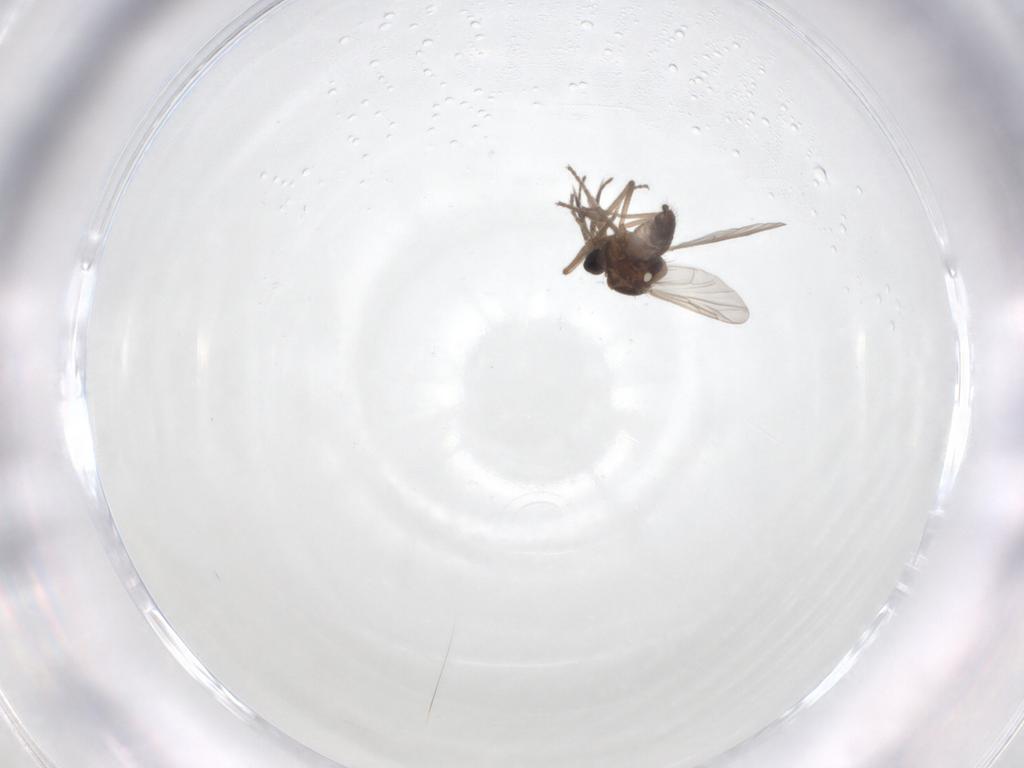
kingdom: Animalia
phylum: Arthropoda
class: Insecta
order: Diptera
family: Ceratopogonidae
